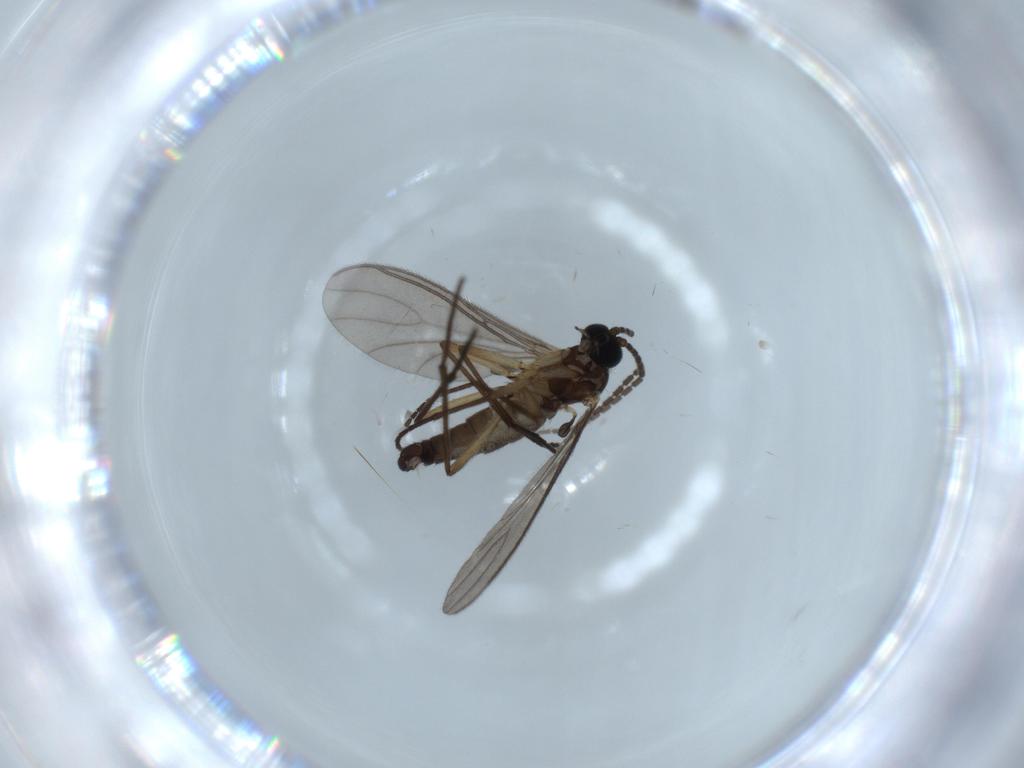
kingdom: Animalia
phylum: Arthropoda
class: Insecta
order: Diptera
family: Sciaridae
